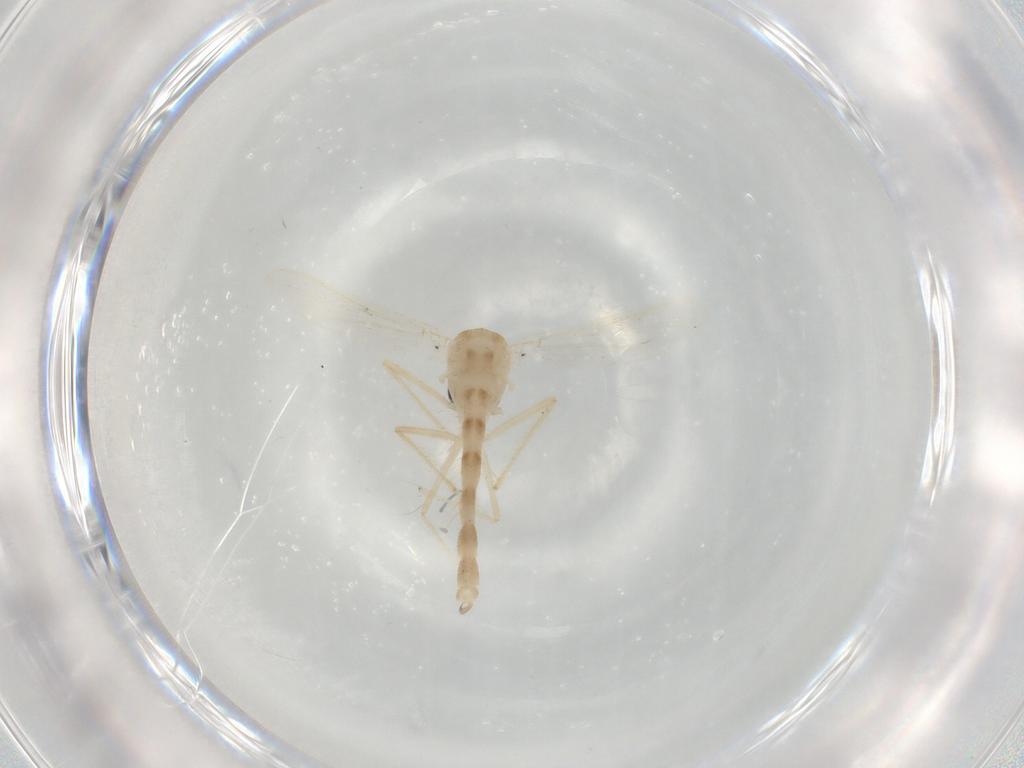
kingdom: Animalia
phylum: Arthropoda
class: Insecta
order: Diptera
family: Chironomidae
